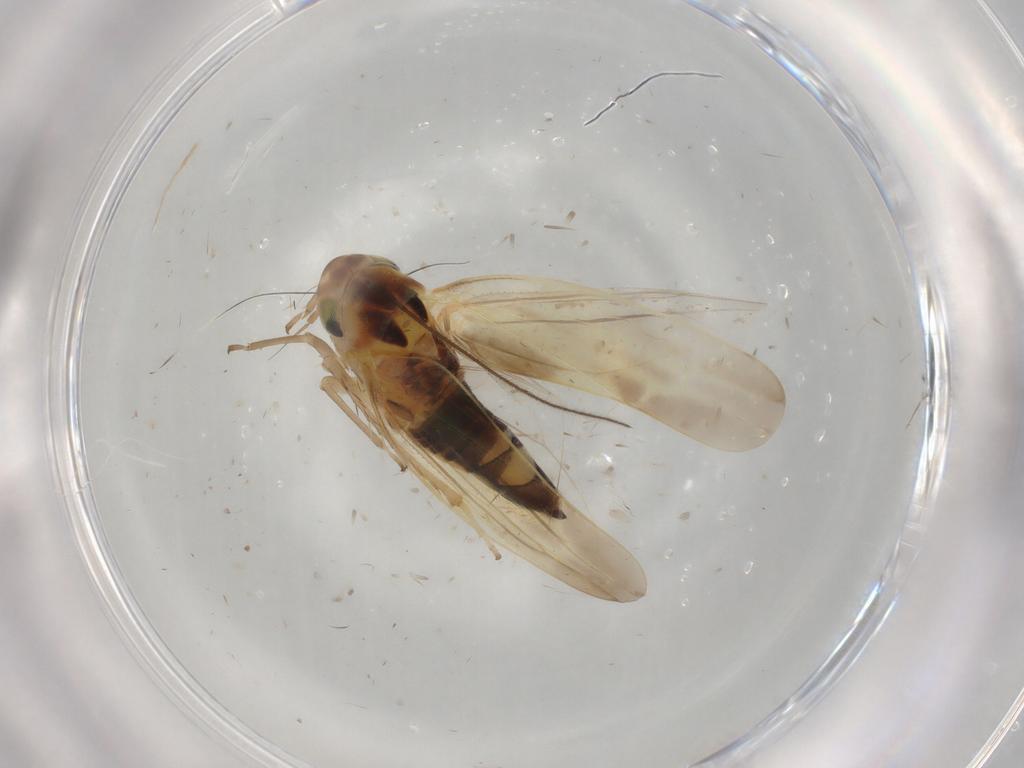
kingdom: Animalia
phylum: Arthropoda
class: Insecta
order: Hemiptera
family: Cicadellidae
